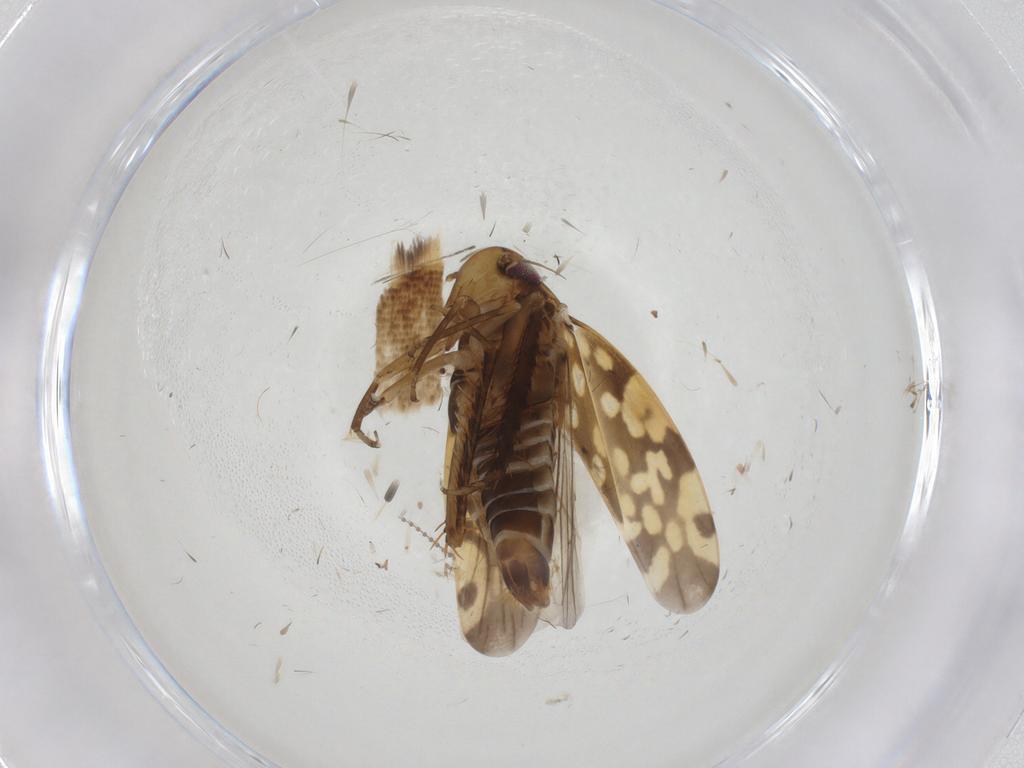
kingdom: Animalia
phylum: Arthropoda
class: Insecta
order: Hemiptera
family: Cicadellidae
